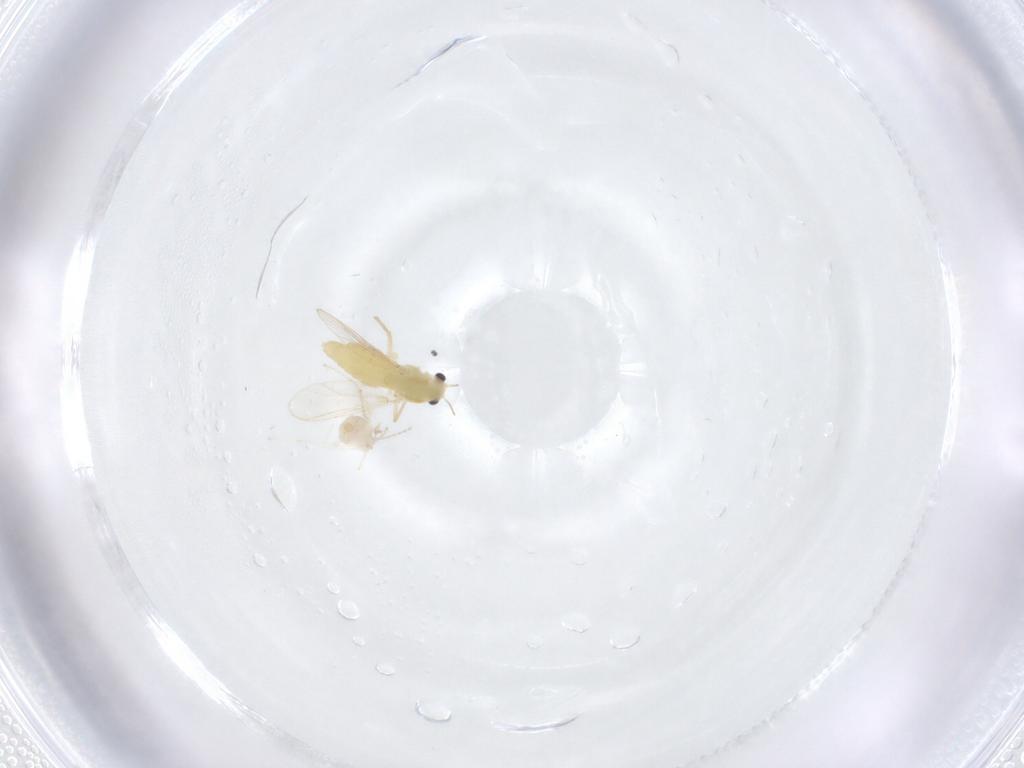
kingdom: Animalia
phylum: Arthropoda
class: Insecta
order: Diptera
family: Chironomidae
